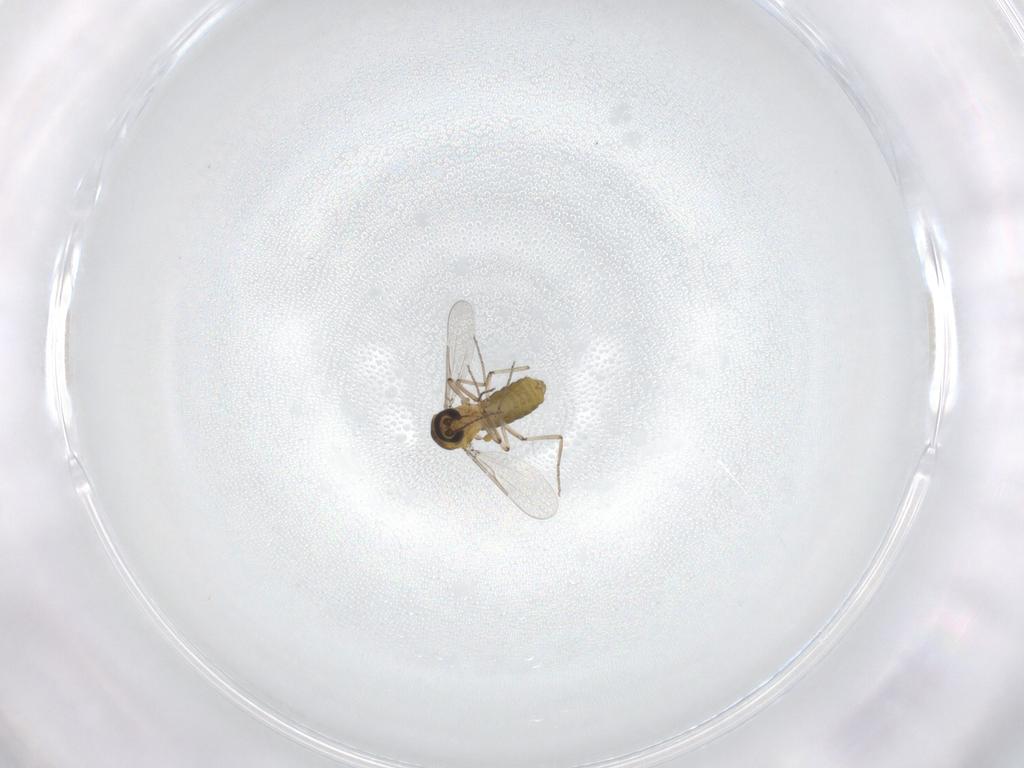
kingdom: Animalia
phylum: Arthropoda
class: Insecta
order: Diptera
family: Ceratopogonidae
